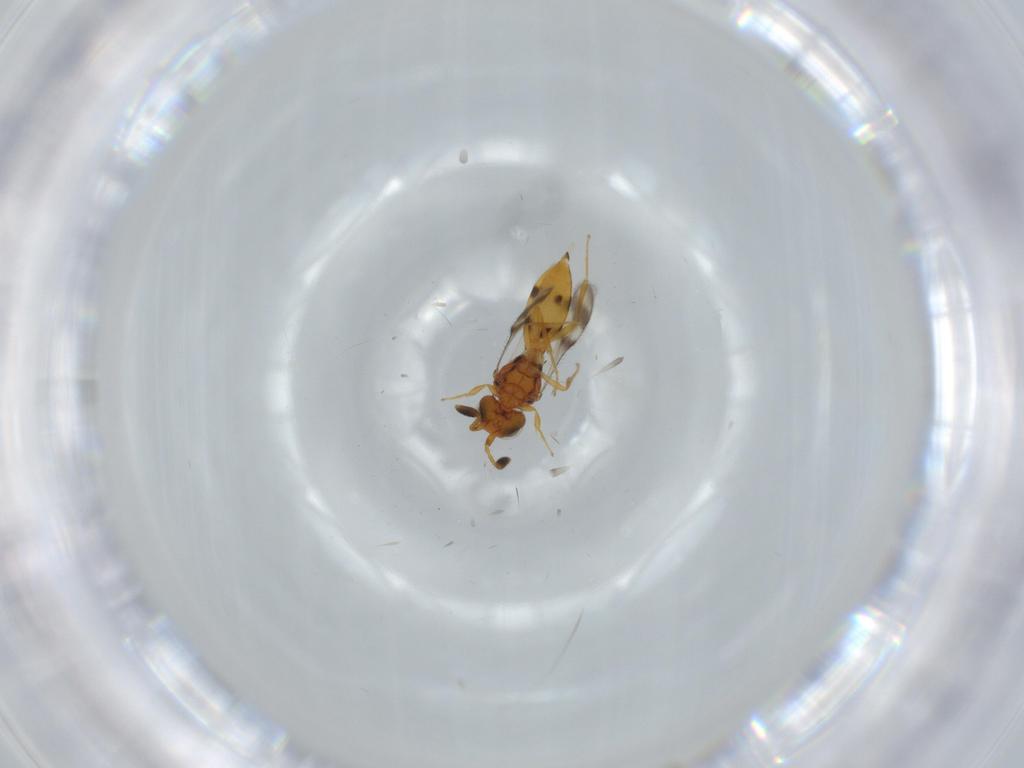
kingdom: Animalia
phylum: Arthropoda
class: Insecta
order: Hymenoptera
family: Scelionidae
